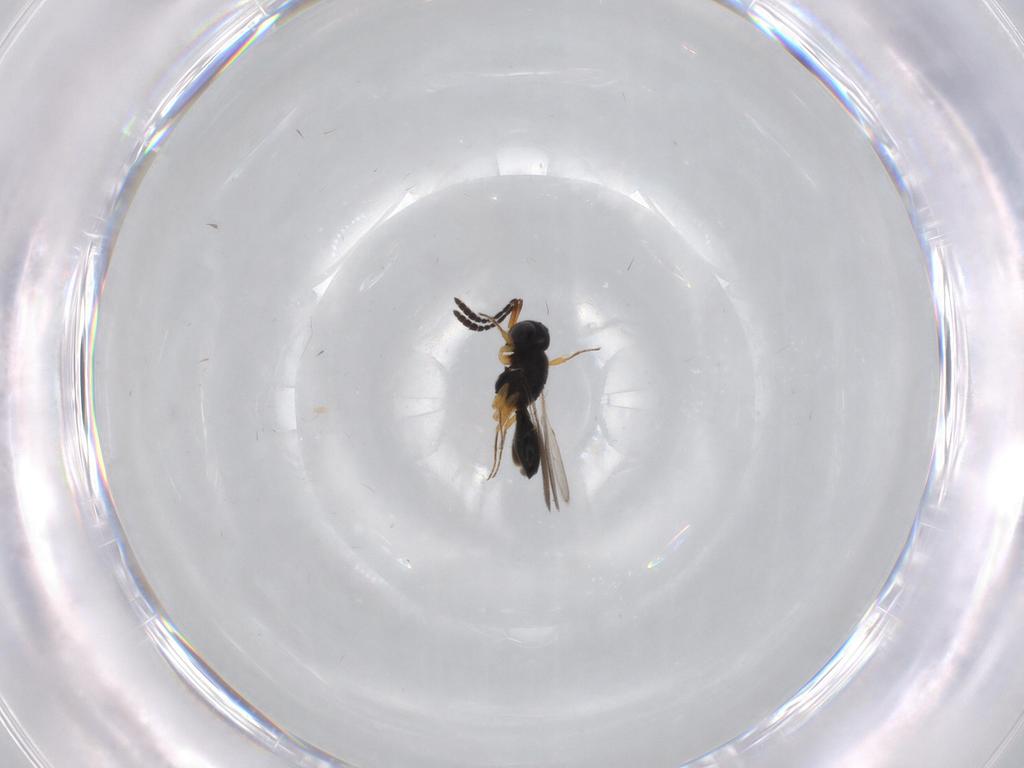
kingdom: Animalia
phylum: Arthropoda
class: Insecta
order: Hymenoptera
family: Scelionidae
